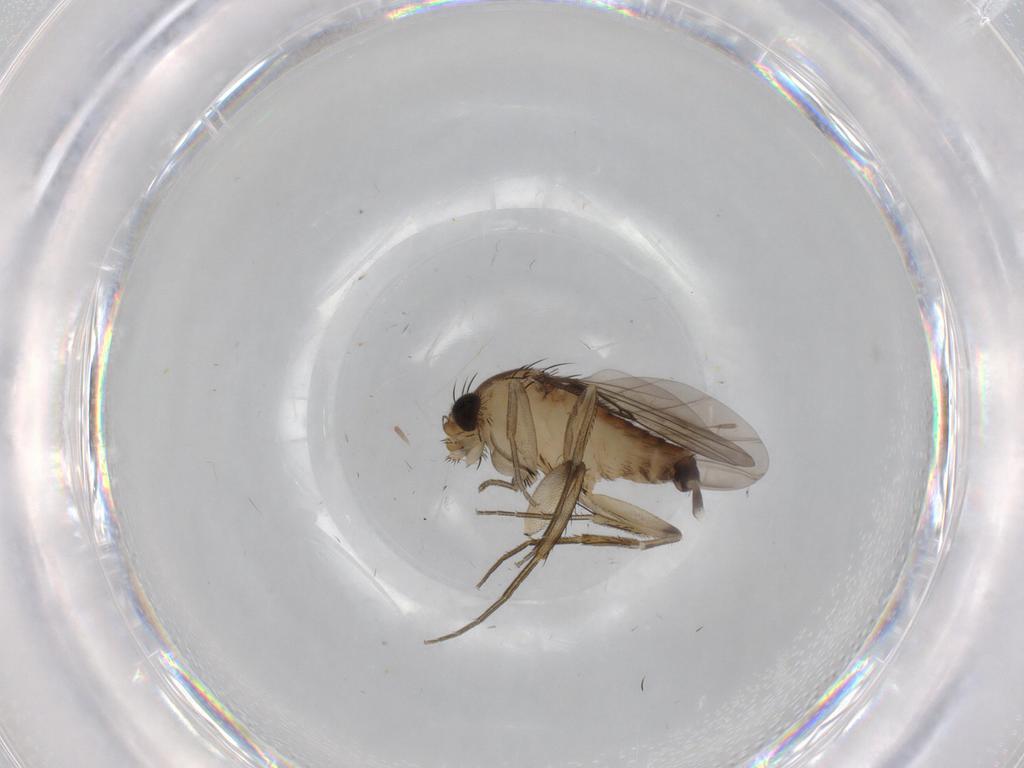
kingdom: Animalia
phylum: Arthropoda
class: Insecta
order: Diptera
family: Phoridae
